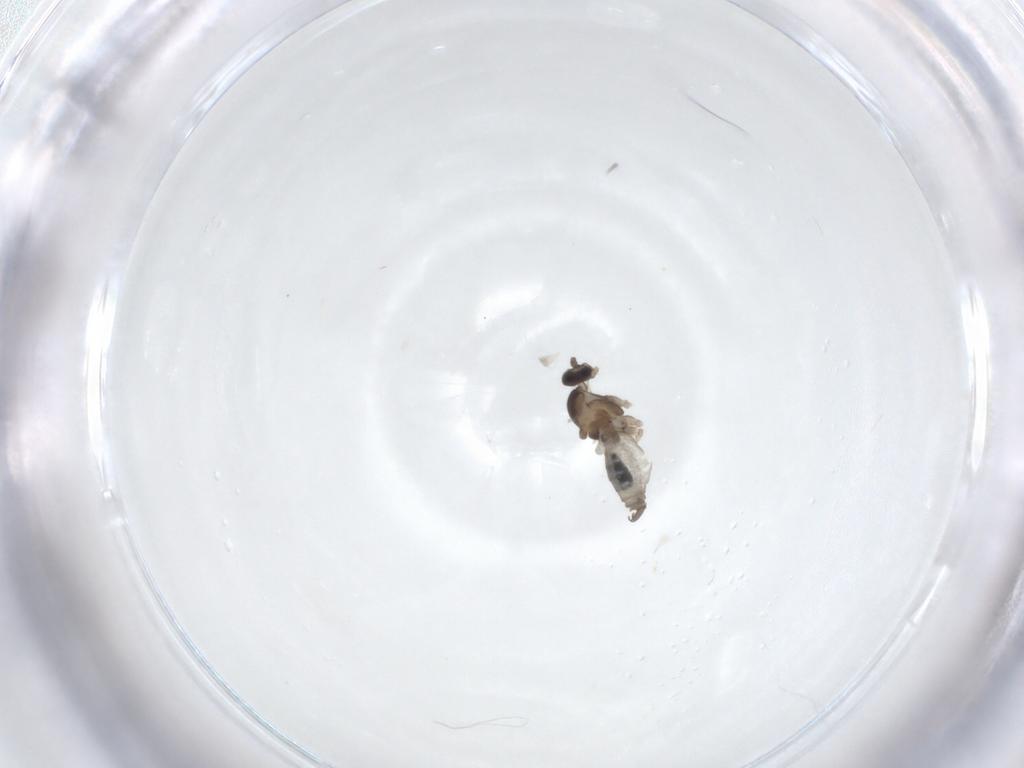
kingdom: Animalia
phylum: Arthropoda
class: Insecta
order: Diptera
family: Cecidomyiidae
